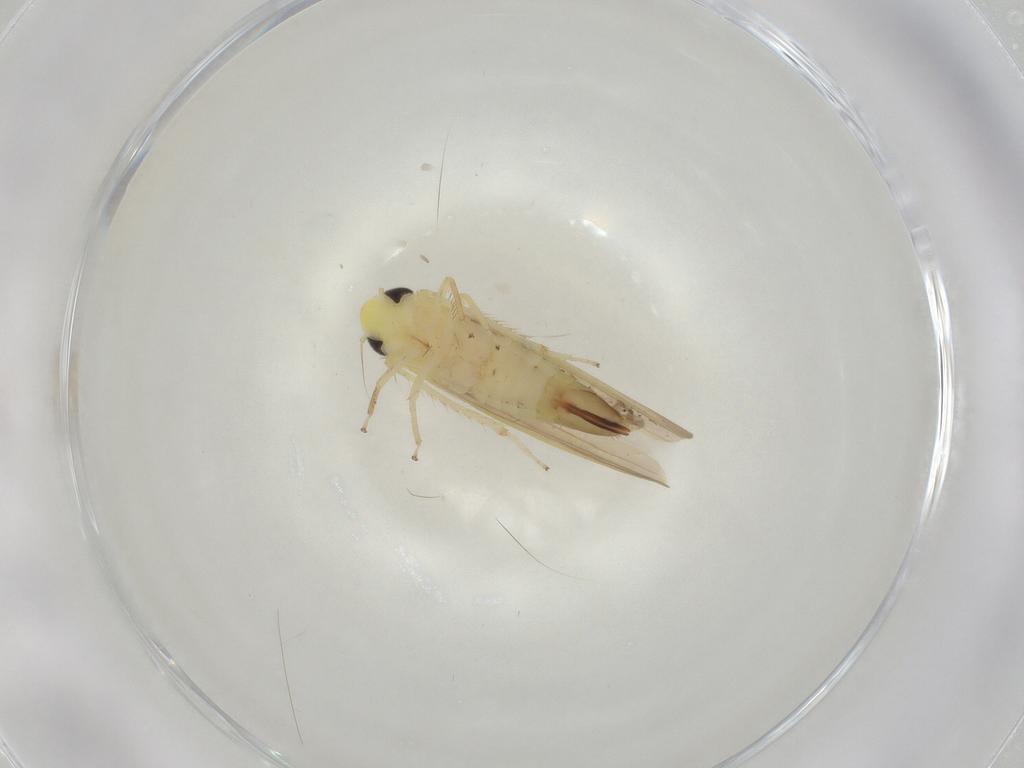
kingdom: Animalia
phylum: Arthropoda
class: Insecta
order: Hemiptera
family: Cicadellidae
